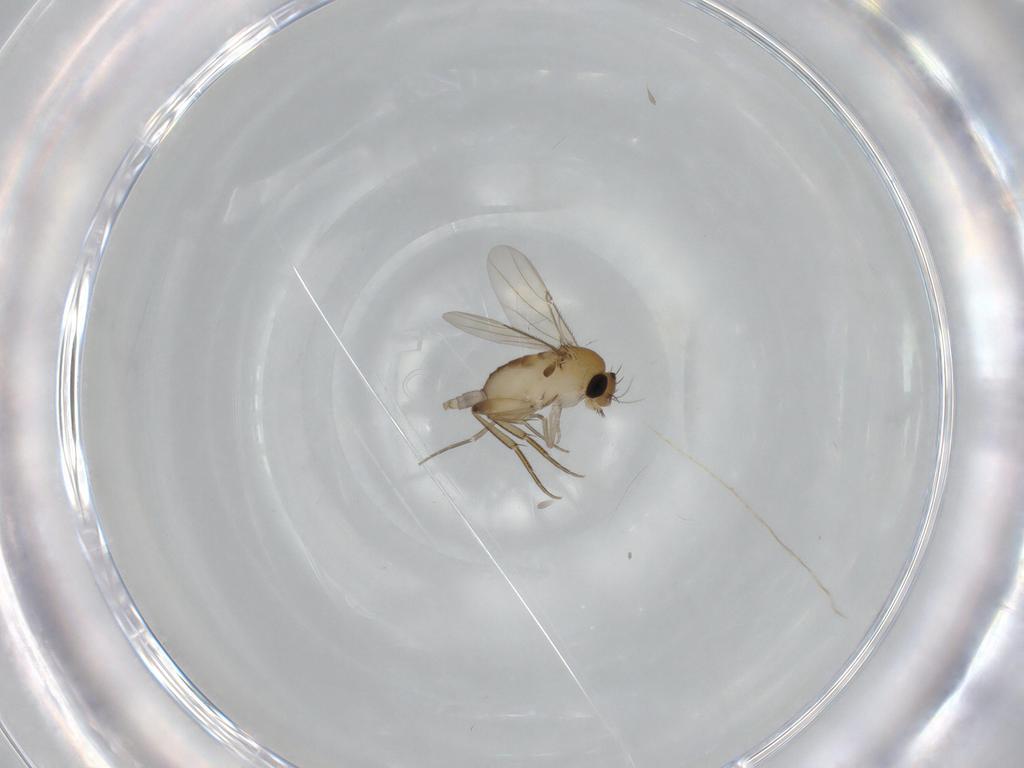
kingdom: Animalia
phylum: Arthropoda
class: Insecta
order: Diptera
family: Phoridae
